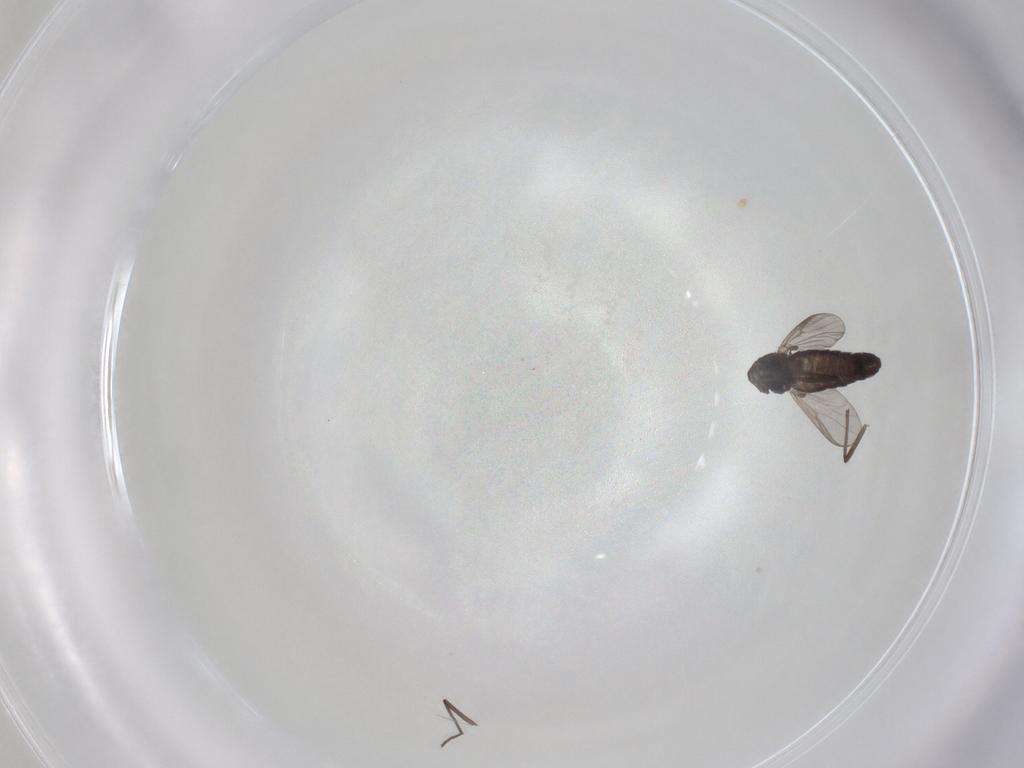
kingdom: Animalia
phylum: Arthropoda
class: Insecta
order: Diptera
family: Chironomidae
